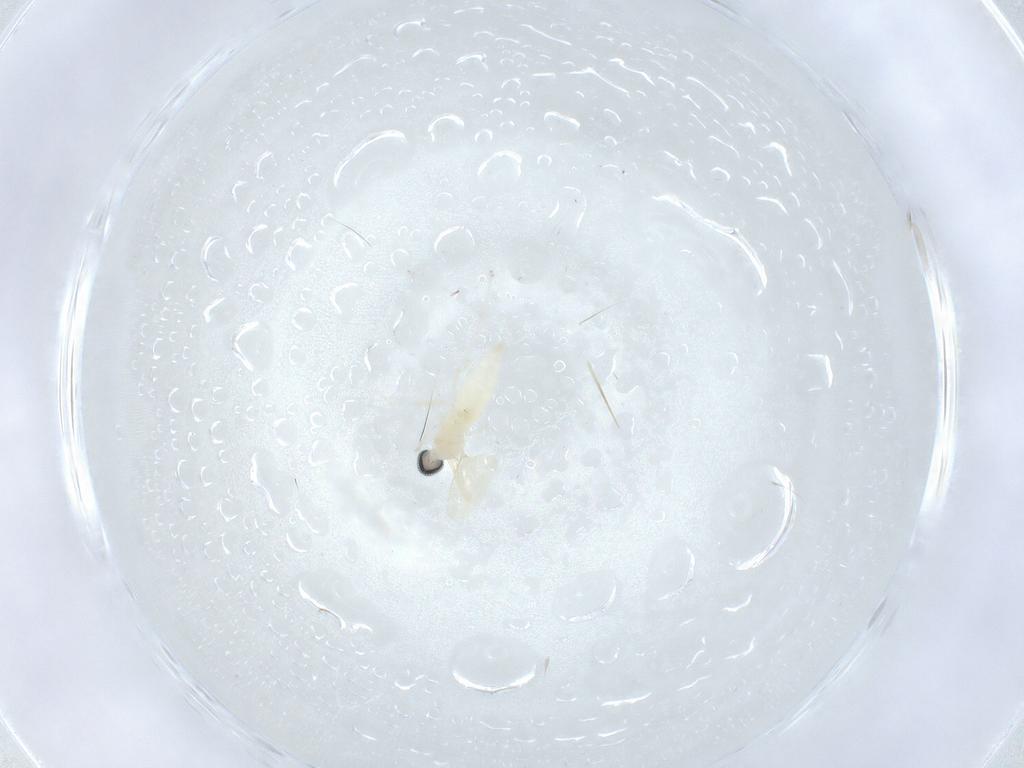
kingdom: Animalia
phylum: Arthropoda
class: Insecta
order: Diptera
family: Cecidomyiidae
